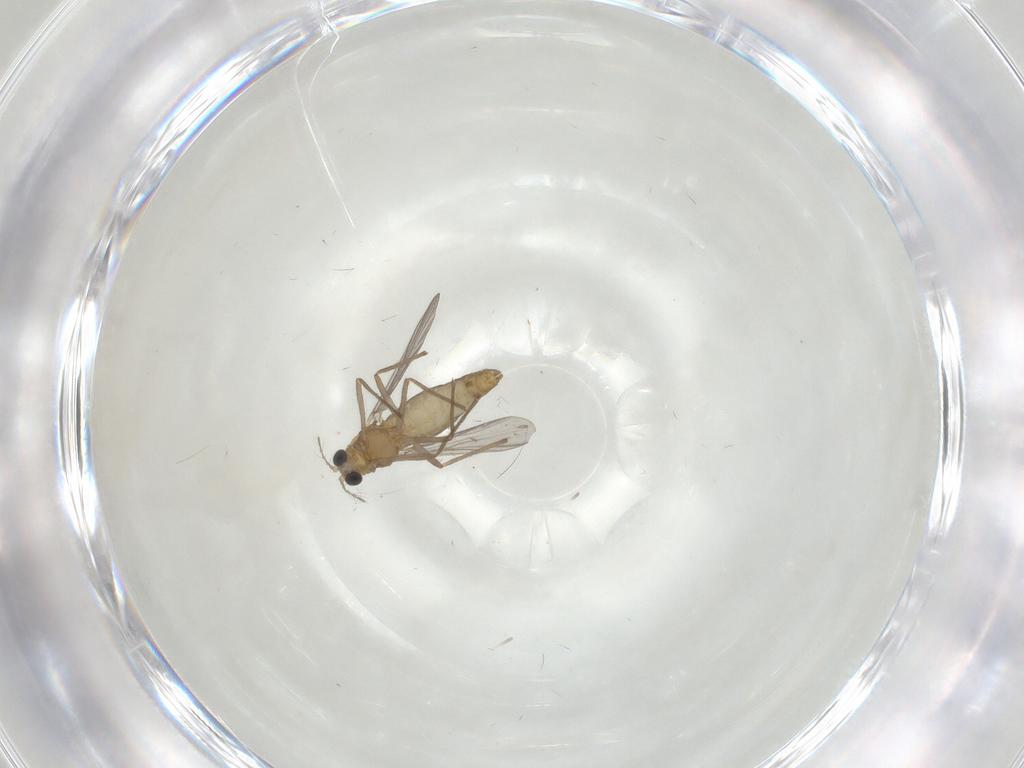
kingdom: Animalia
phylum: Arthropoda
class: Insecta
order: Diptera
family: Chironomidae
